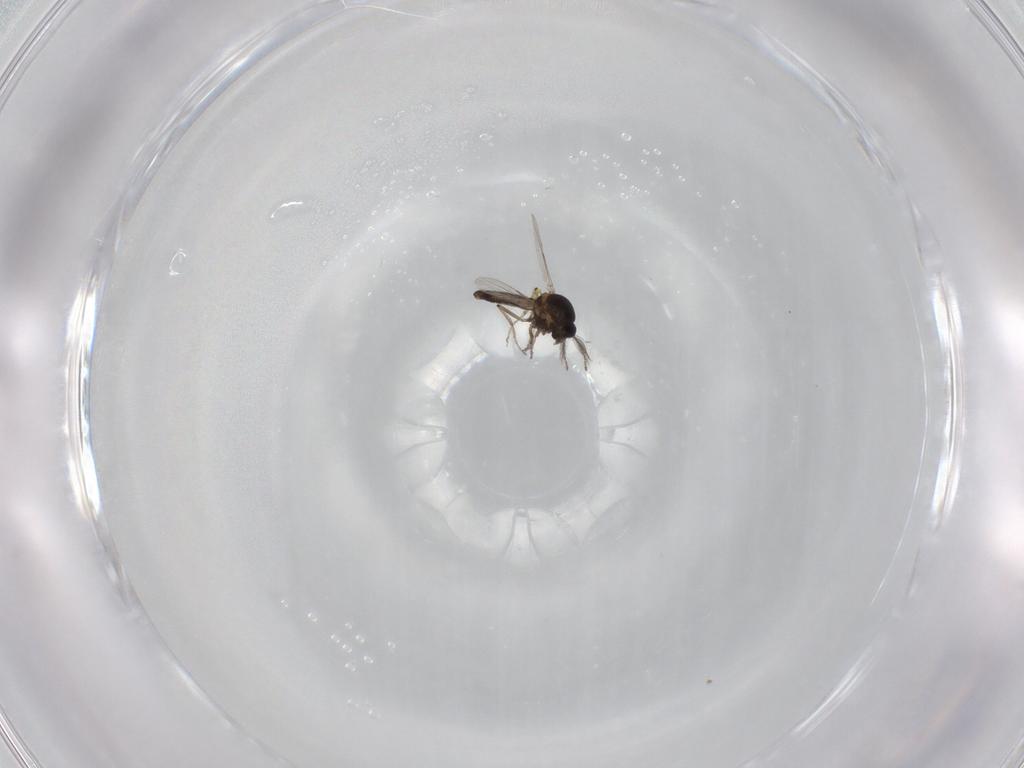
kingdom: Animalia
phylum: Arthropoda
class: Insecta
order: Diptera
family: Ceratopogonidae
